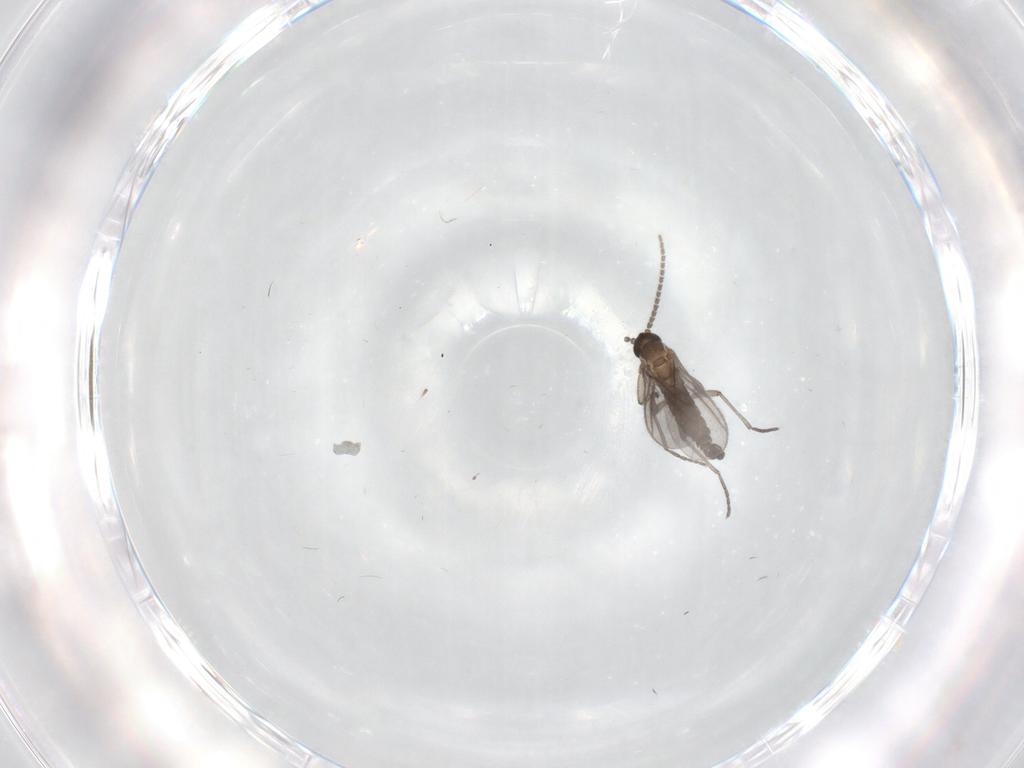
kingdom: Animalia
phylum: Arthropoda
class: Insecta
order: Diptera
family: Sciaridae
